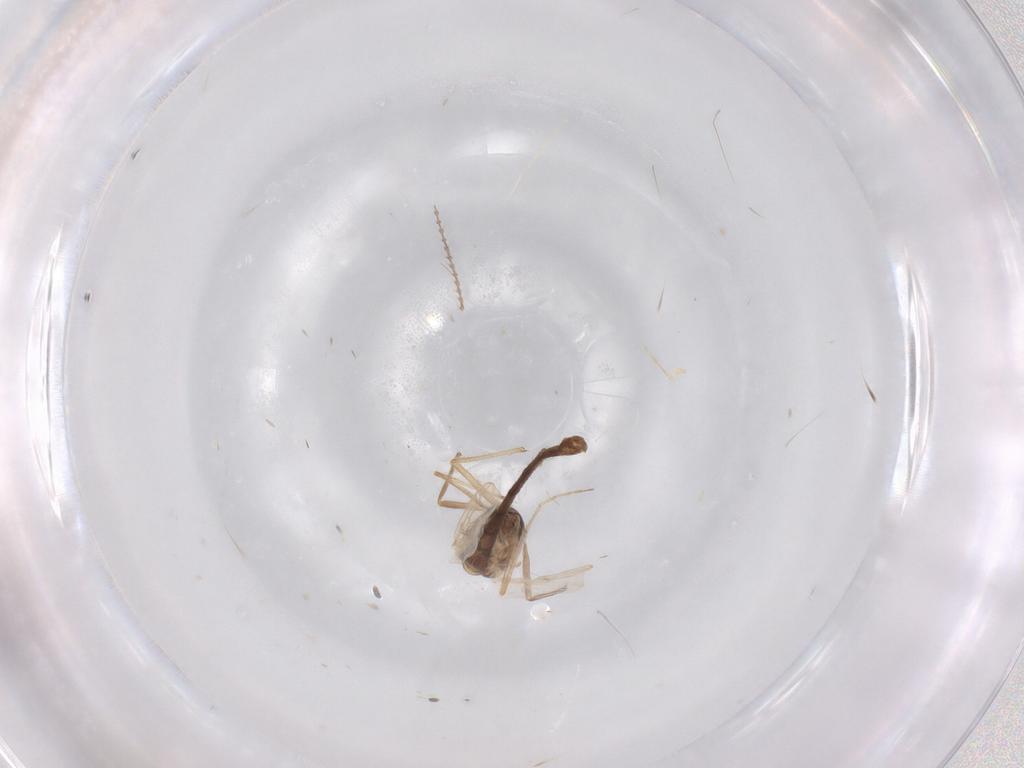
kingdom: Animalia
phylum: Arthropoda
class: Insecta
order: Diptera
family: Chironomidae
